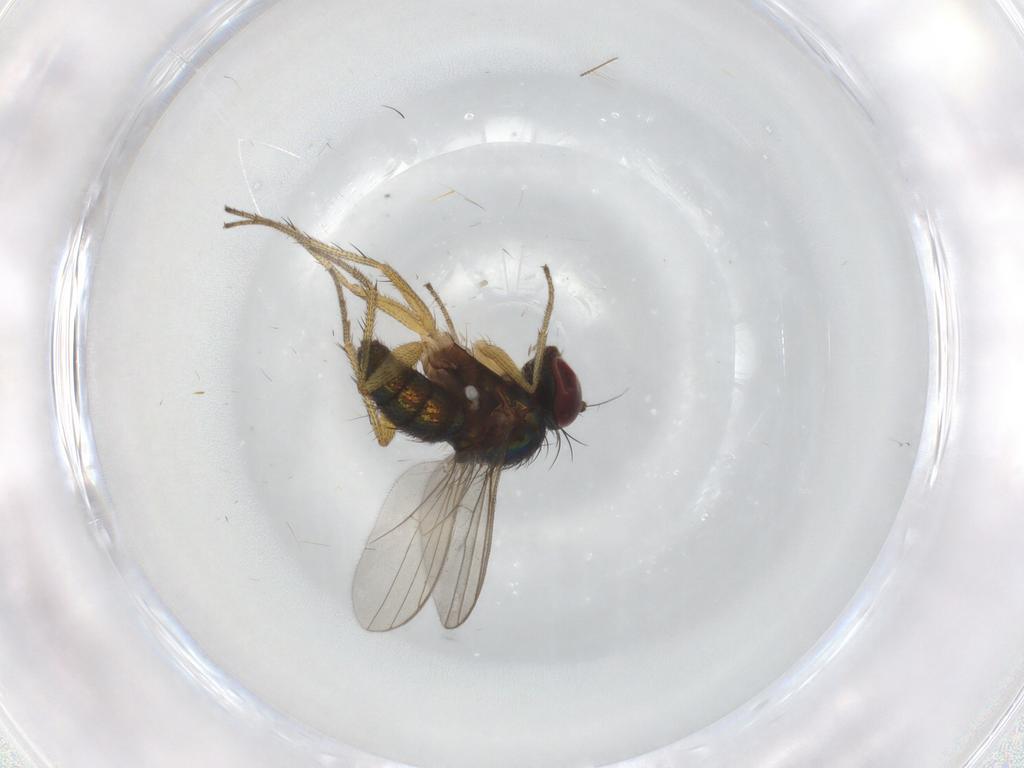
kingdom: Animalia
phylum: Arthropoda
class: Insecta
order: Diptera
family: Dolichopodidae
